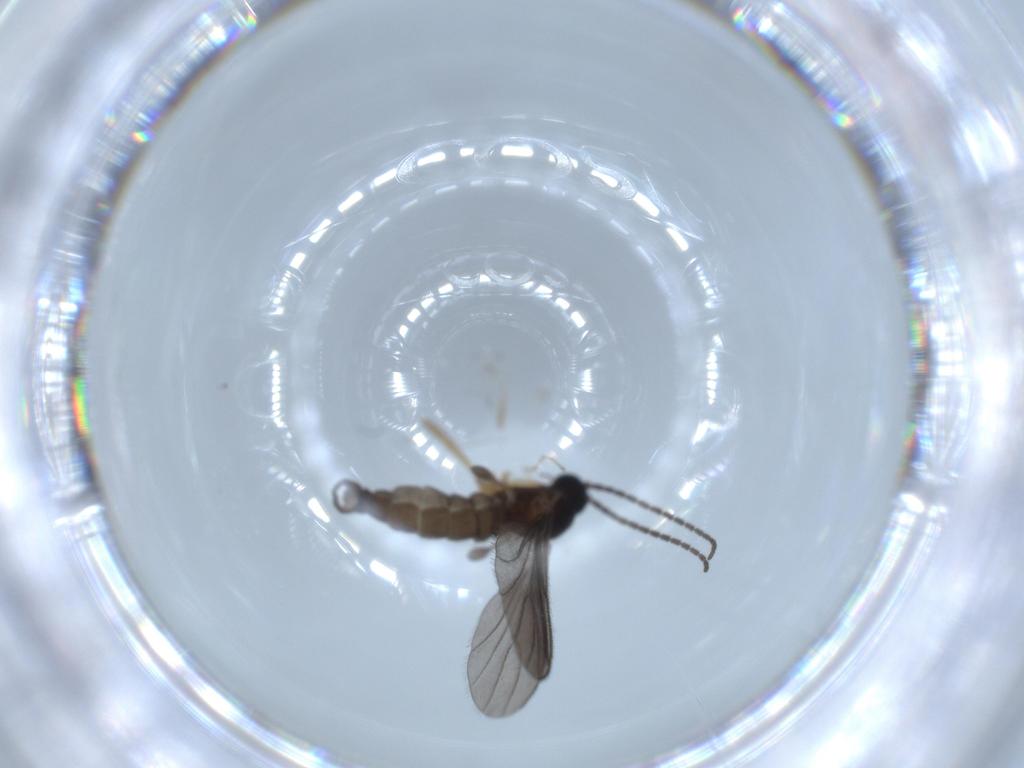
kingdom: Animalia
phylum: Arthropoda
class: Insecta
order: Diptera
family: Sciaridae
